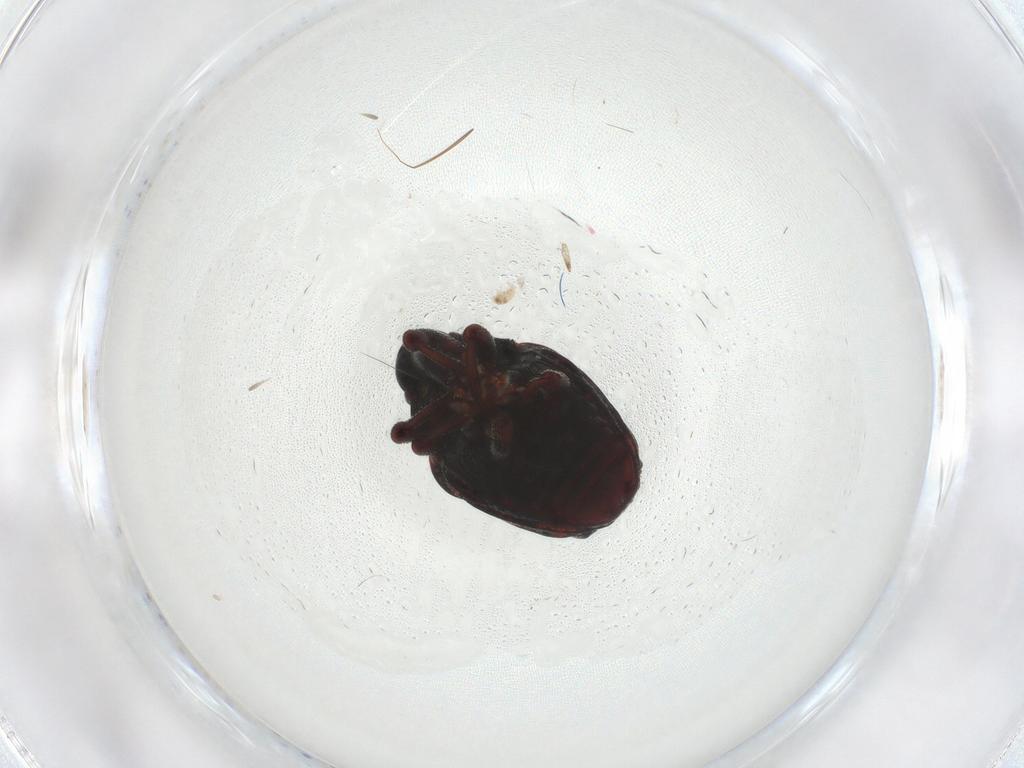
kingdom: Animalia
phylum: Arthropoda
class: Insecta
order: Coleoptera
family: Curculionidae
